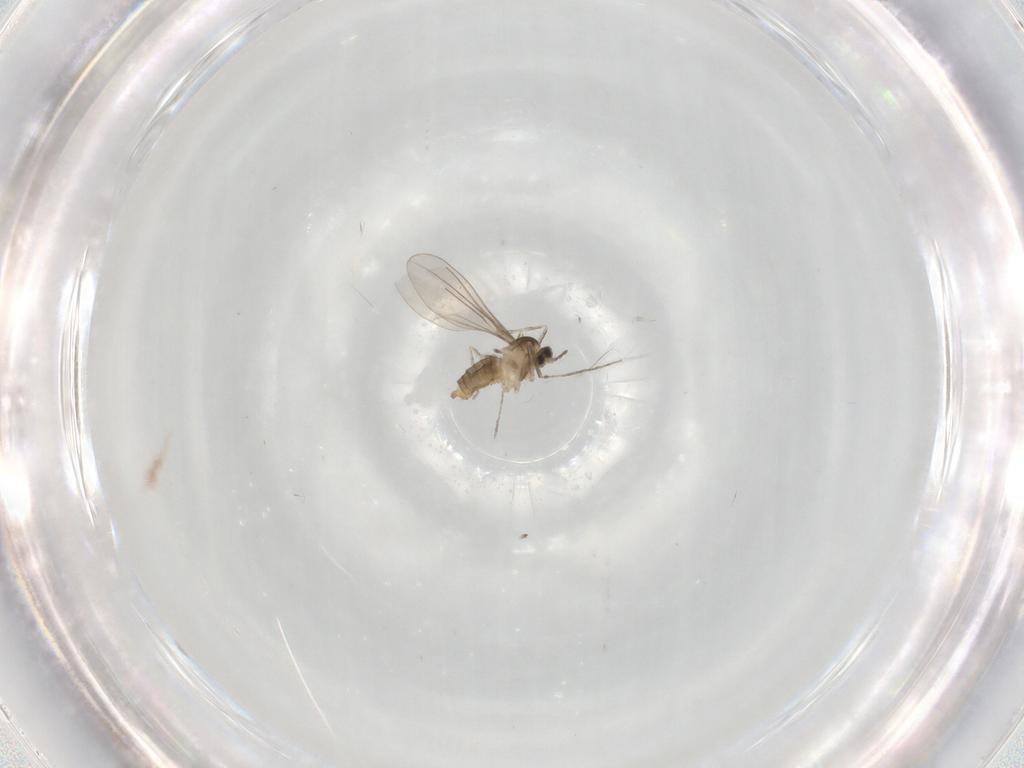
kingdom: Animalia
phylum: Arthropoda
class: Insecta
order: Diptera
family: Cecidomyiidae
